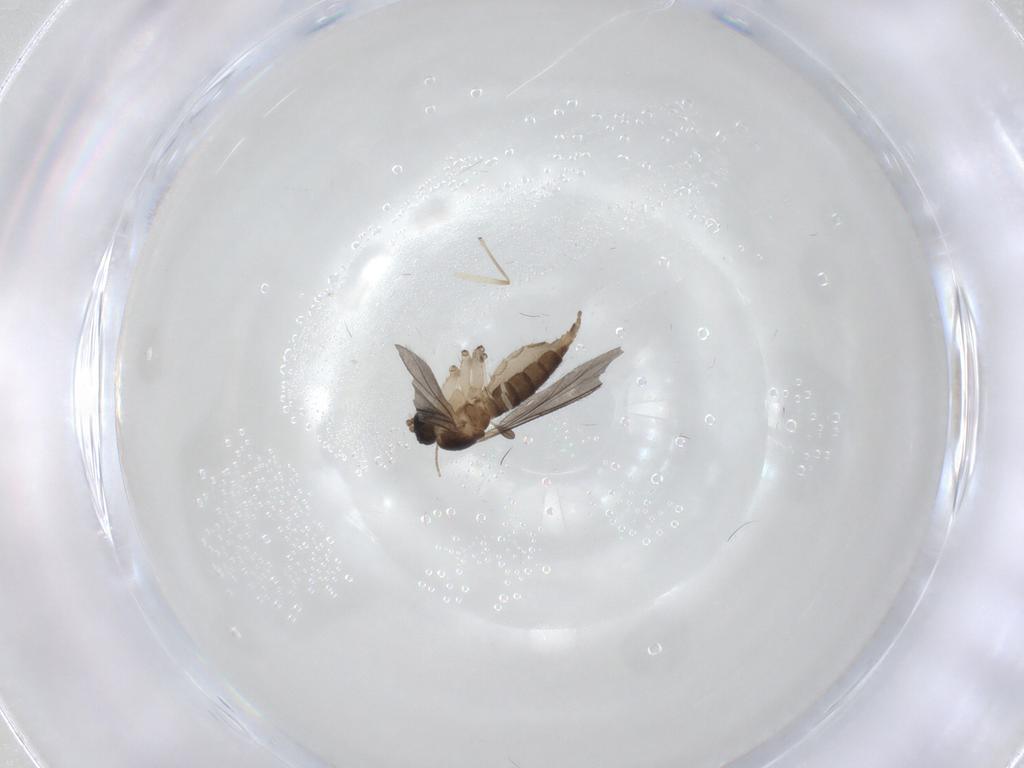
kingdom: Animalia
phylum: Arthropoda
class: Insecta
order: Diptera
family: Sciaridae
